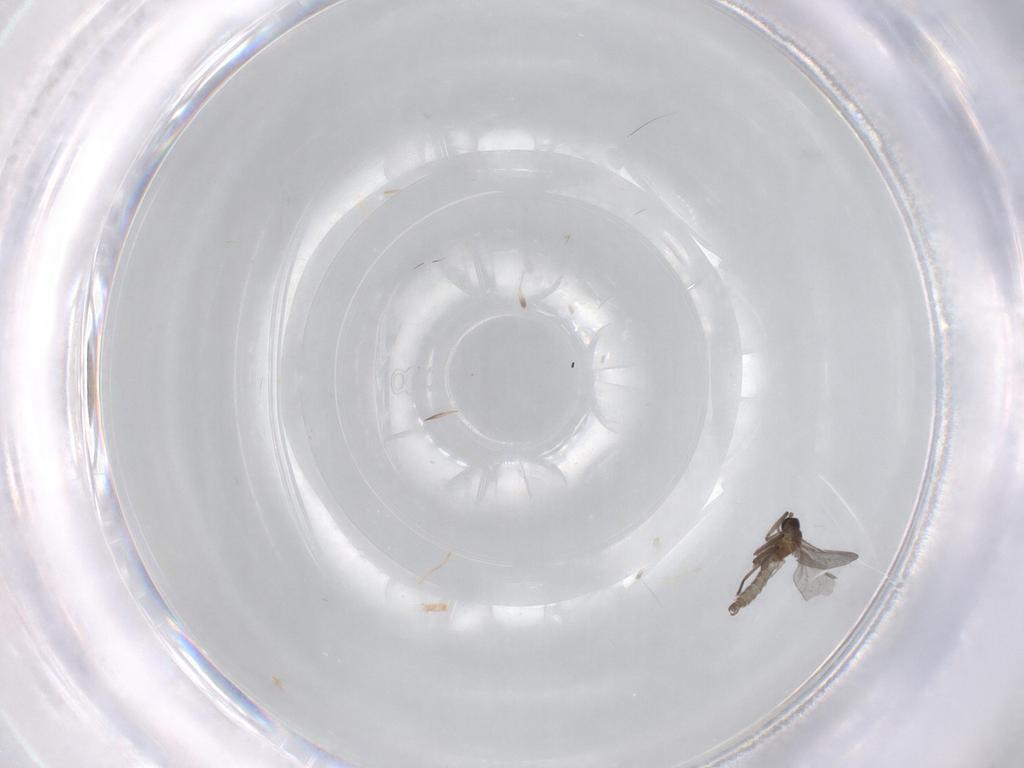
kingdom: Animalia
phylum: Arthropoda
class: Insecta
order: Diptera
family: Sciaridae
